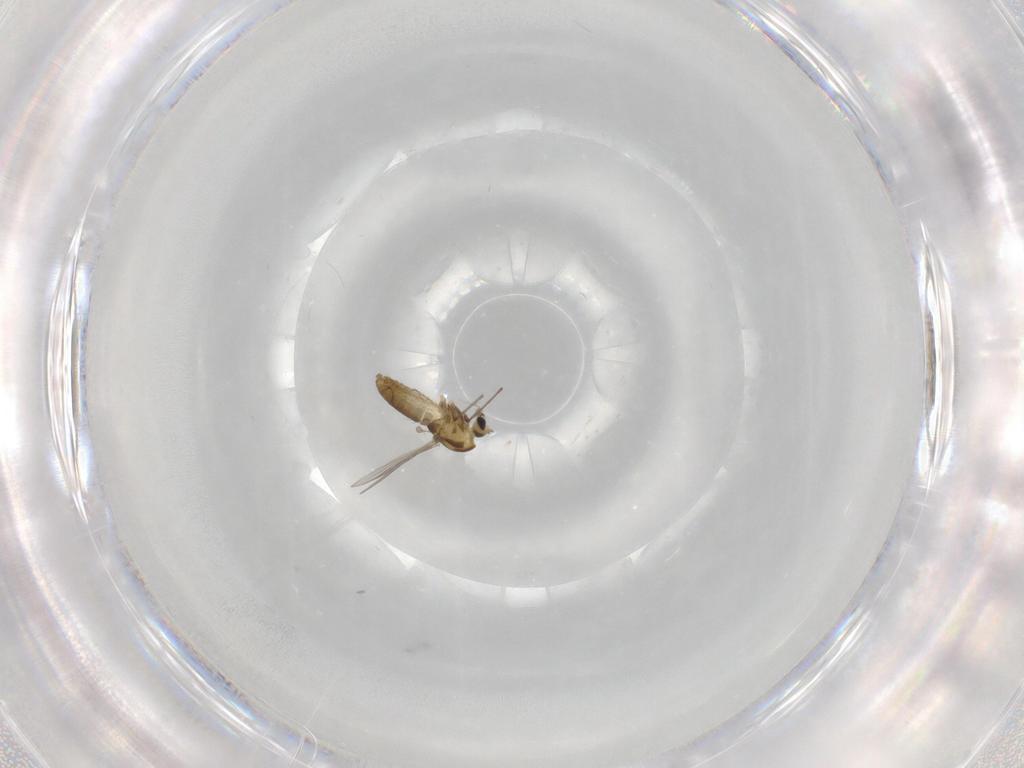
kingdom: Animalia
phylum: Arthropoda
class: Insecta
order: Diptera
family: Chironomidae
